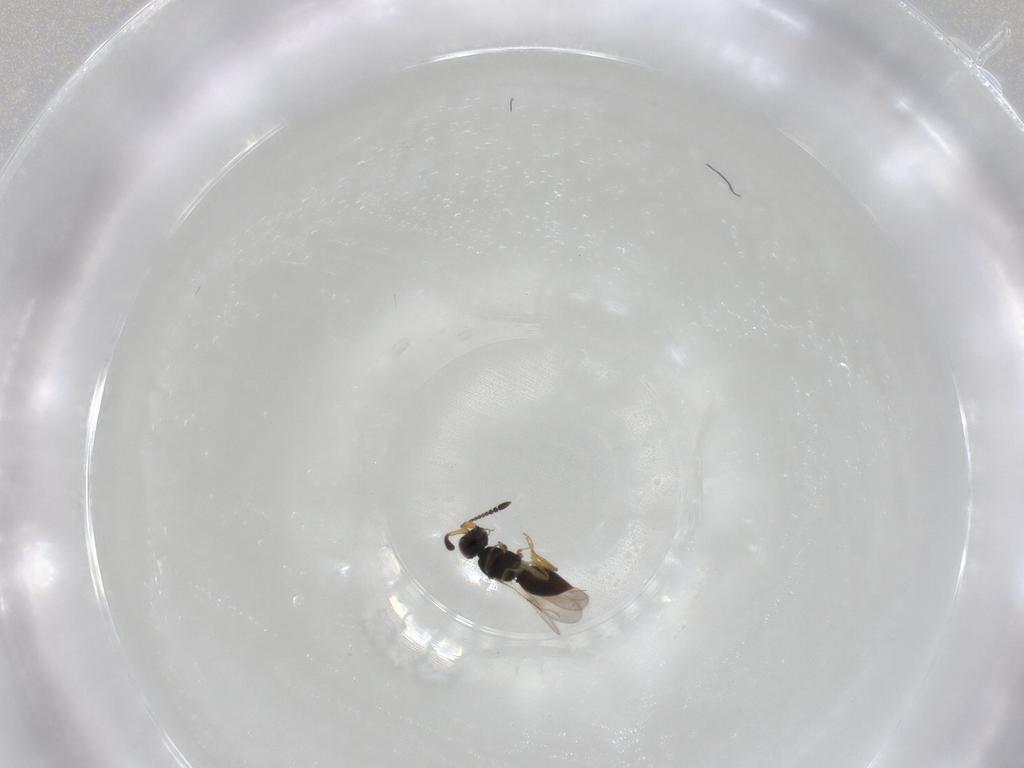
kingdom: Animalia
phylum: Arthropoda
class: Insecta
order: Hymenoptera
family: Ceraphronidae
